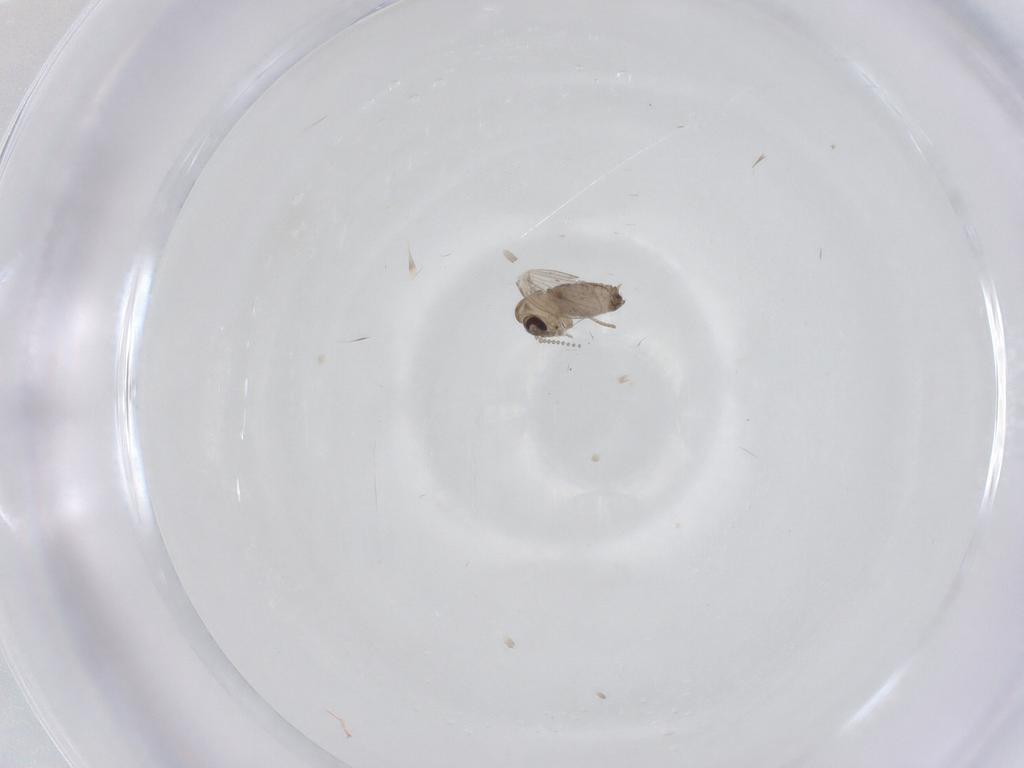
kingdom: Animalia
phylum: Arthropoda
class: Insecta
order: Diptera
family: Psychodidae
